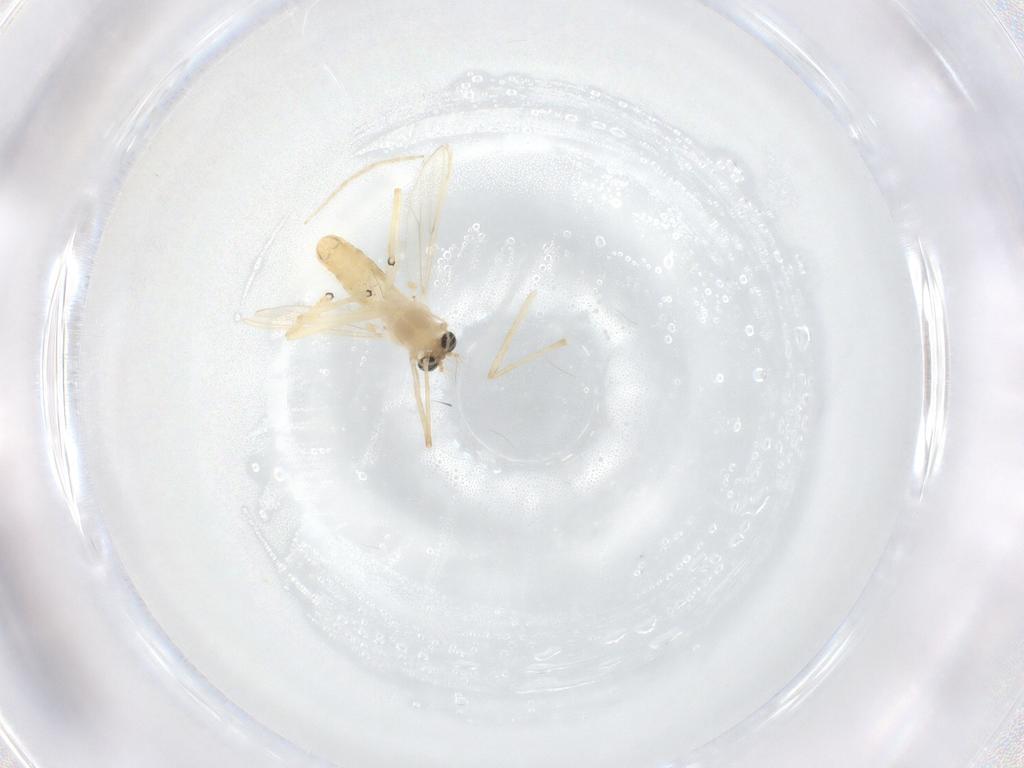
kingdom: Animalia
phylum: Arthropoda
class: Insecta
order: Diptera
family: Chironomidae
